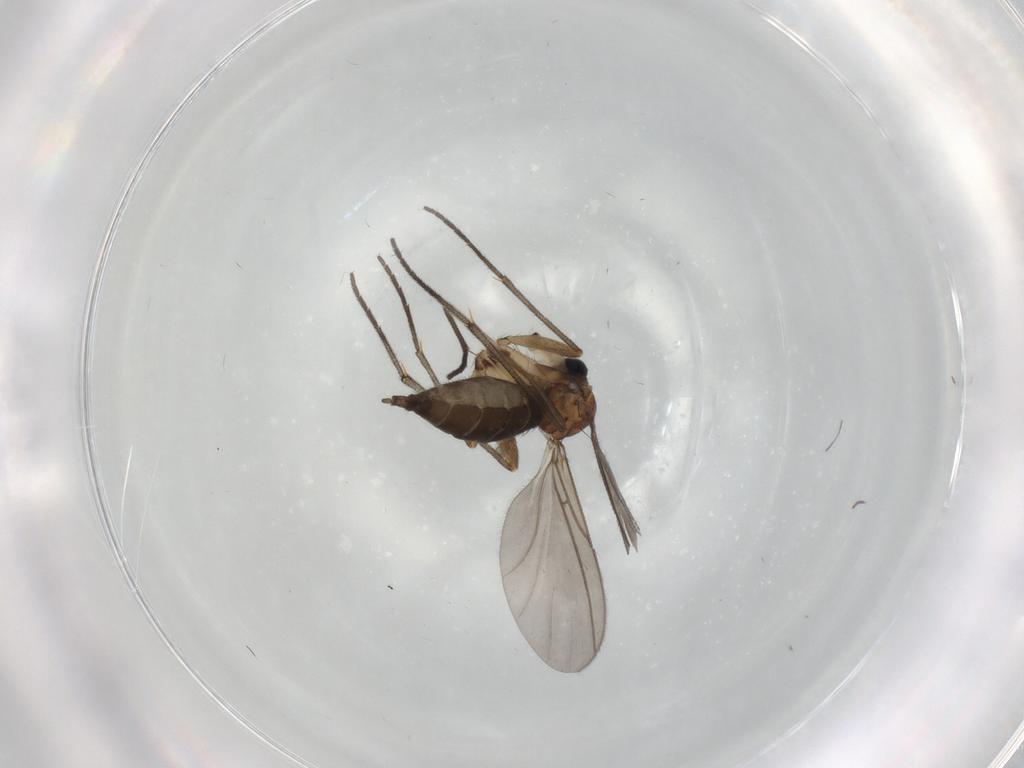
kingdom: Animalia
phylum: Arthropoda
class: Insecta
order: Diptera
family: Sciaridae
